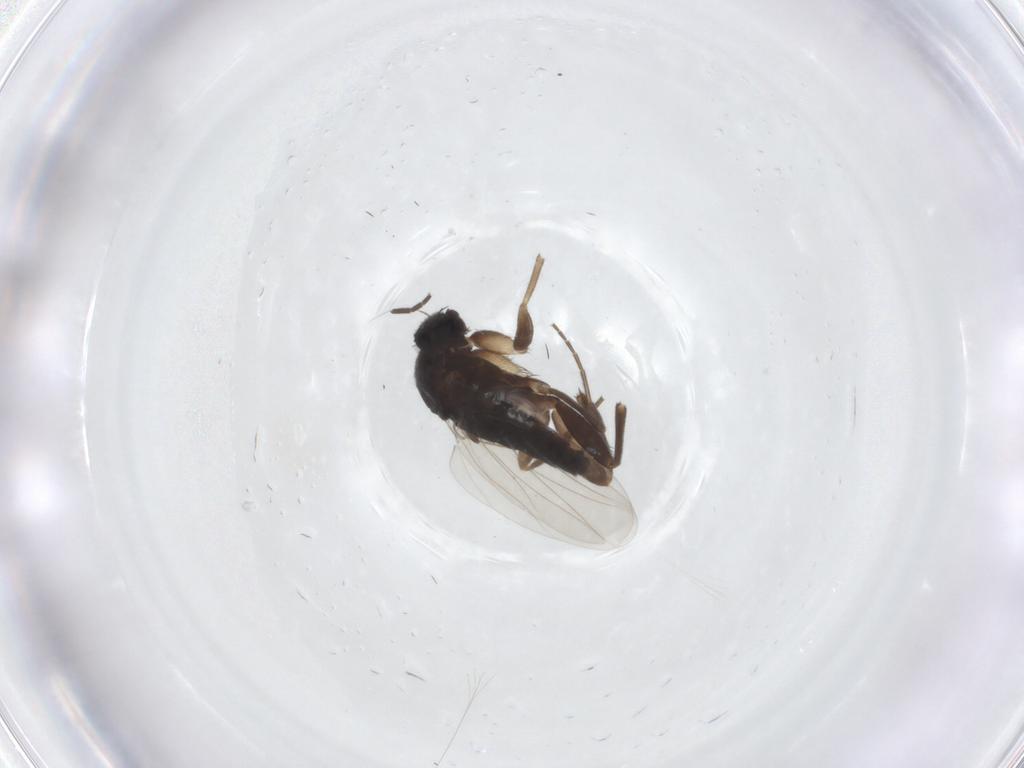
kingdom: Animalia
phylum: Arthropoda
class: Insecta
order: Diptera
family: Phoridae
